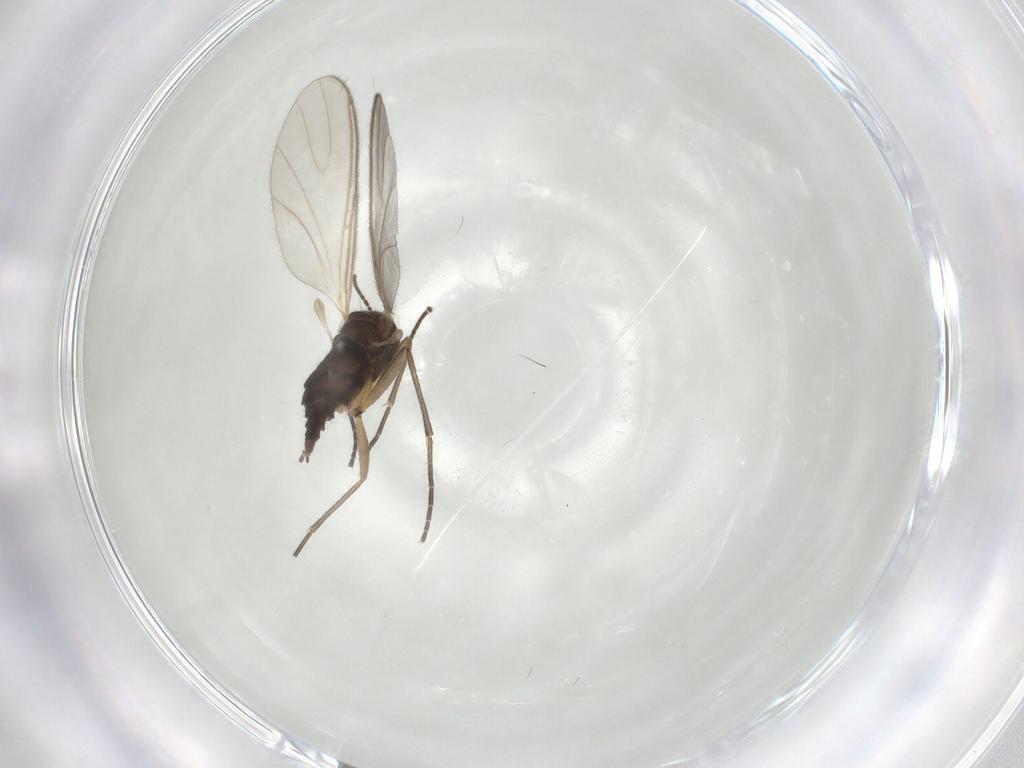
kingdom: Animalia
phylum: Arthropoda
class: Insecta
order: Diptera
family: Sciaridae
